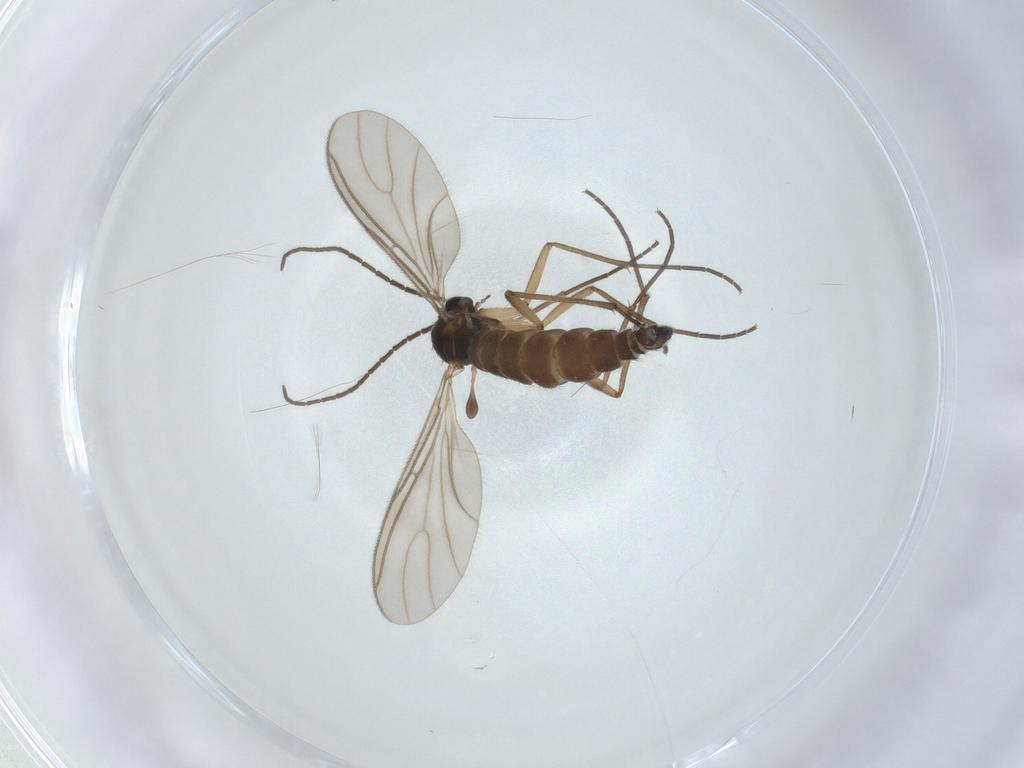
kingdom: Animalia
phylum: Arthropoda
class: Insecta
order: Diptera
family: Sciaridae
